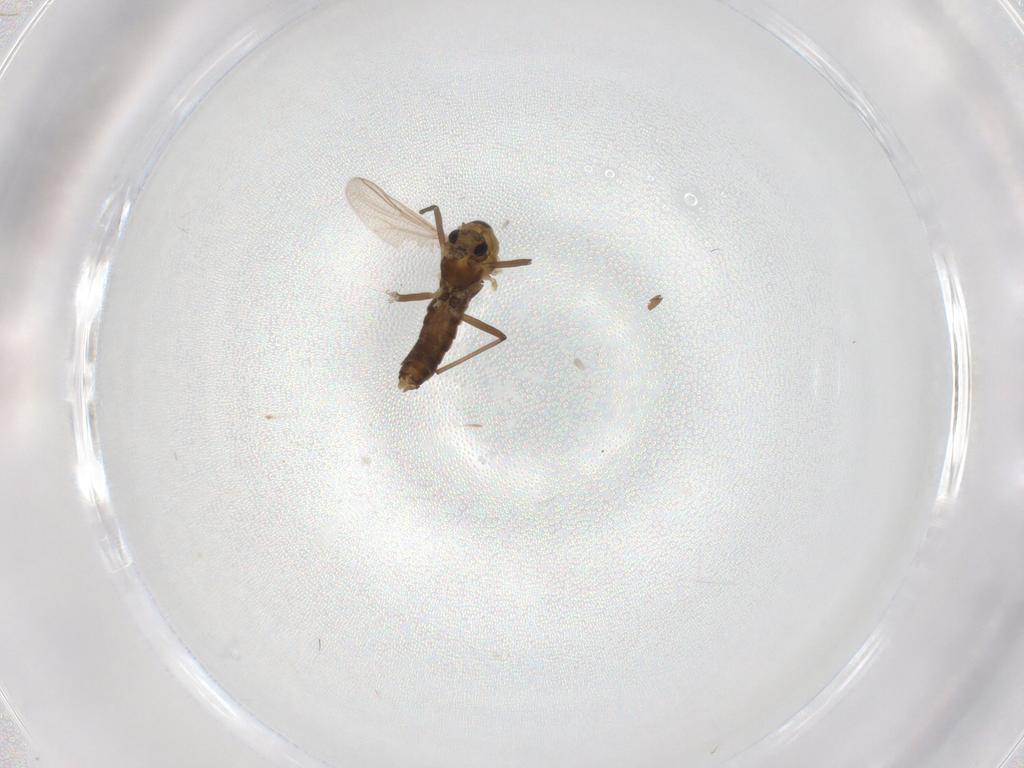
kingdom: Animalia
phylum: Arthropoda
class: Insecta
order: Diptera
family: Chironomidae
